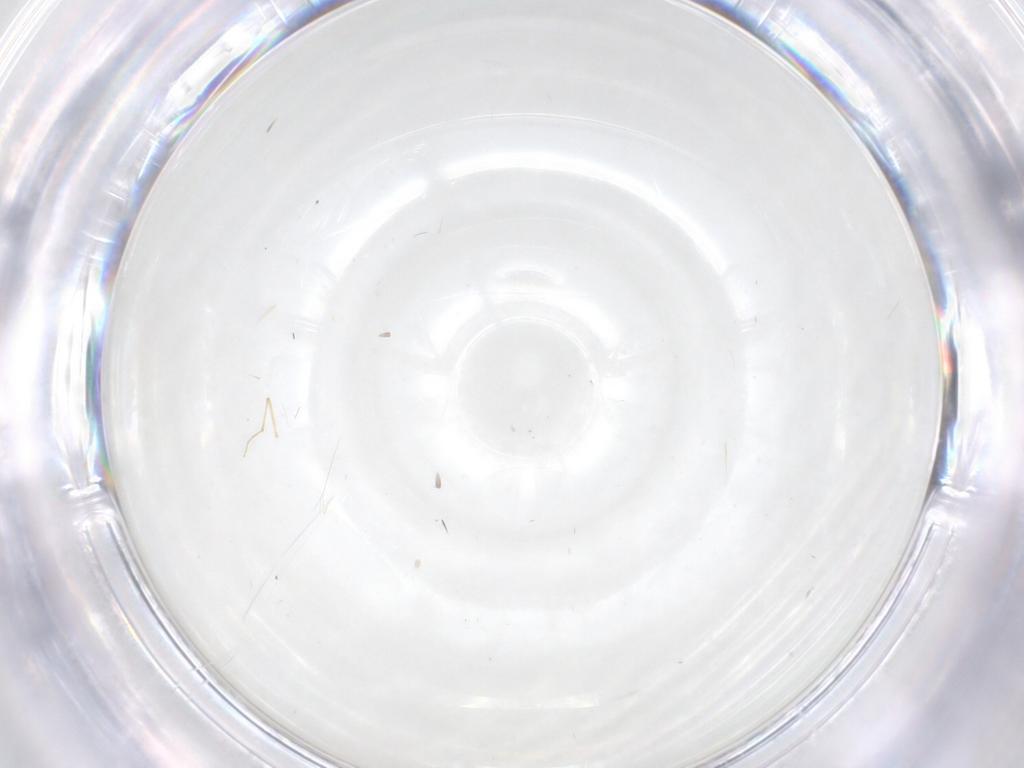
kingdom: Animalia
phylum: Arthropoda
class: Insecta
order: Diptera
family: Chironomidae
